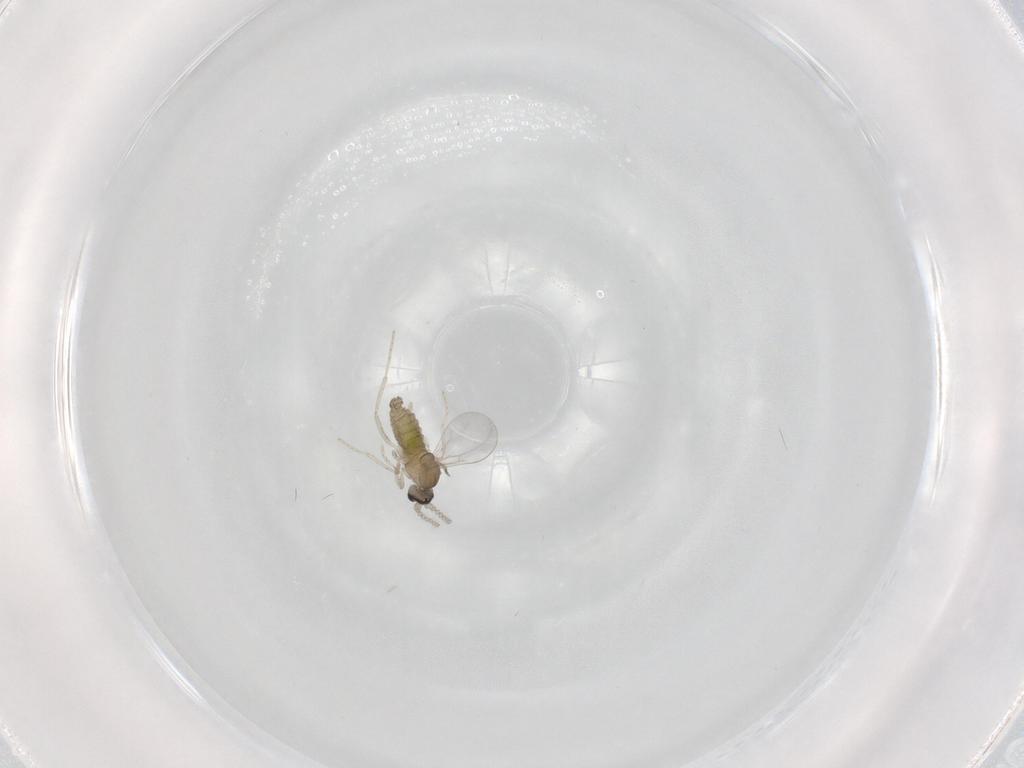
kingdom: Animalia
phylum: Arthropoda
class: Insecta
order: Diptera
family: Cecidomyiidae
